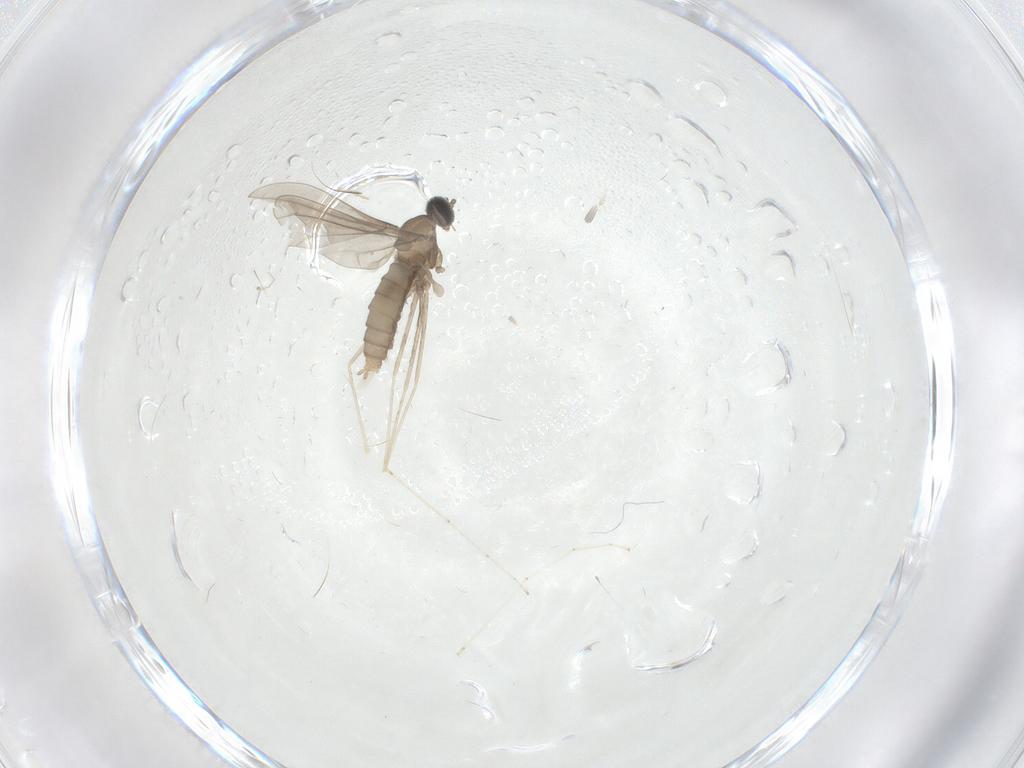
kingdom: Animalia
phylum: Arthropoda
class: Insecta
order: Diptera
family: Cecidomyiidae
